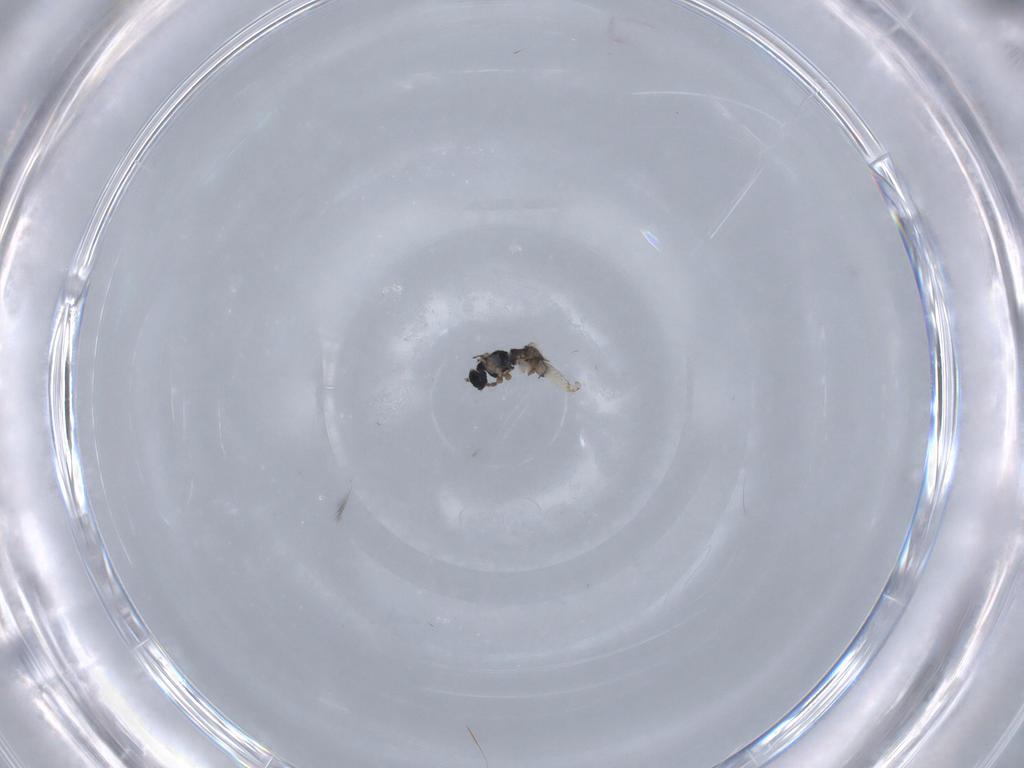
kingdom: Animalia
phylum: Arthropoda
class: Insecta
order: Diptera
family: Sciaridae
